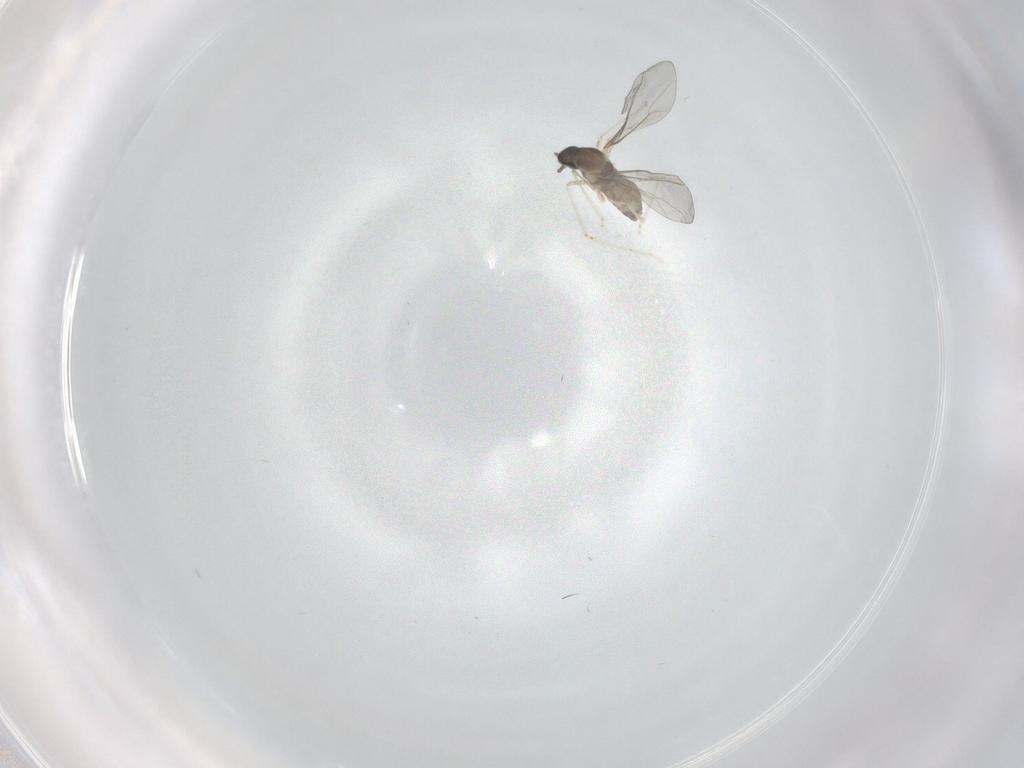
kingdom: Animalia
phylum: Arthropoda
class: Insecta
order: Diptera
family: Cecidomyiidae
